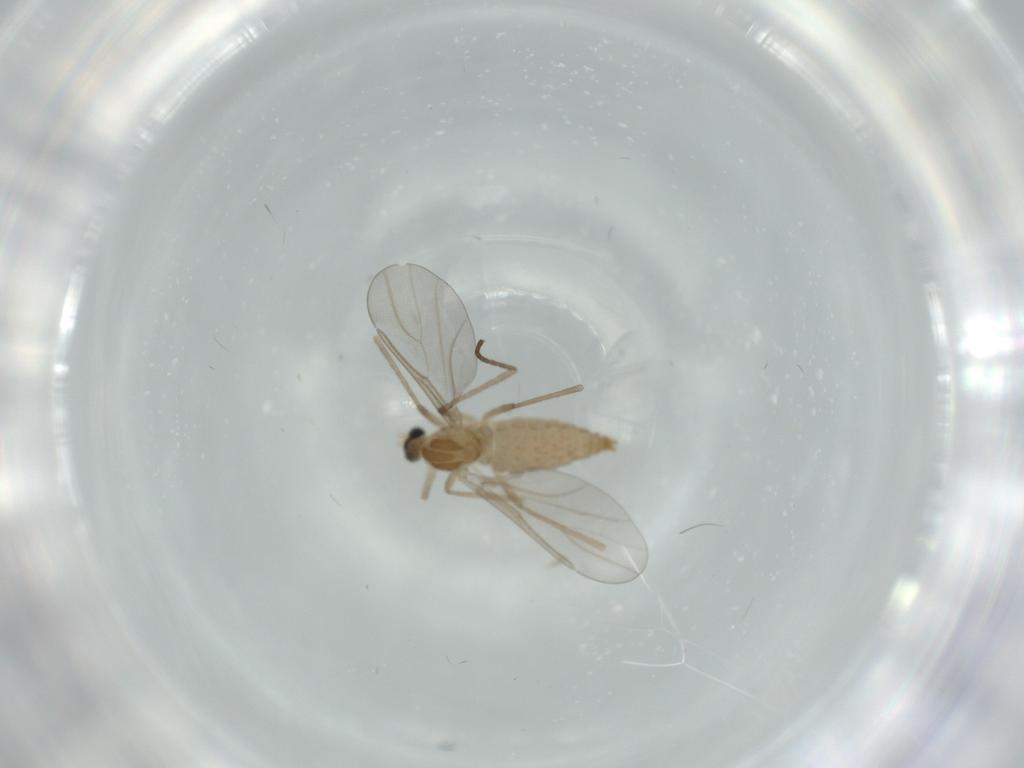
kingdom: Animalia
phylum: Arthropoda
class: Insecta
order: Diptera
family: Cecidomyiidae
